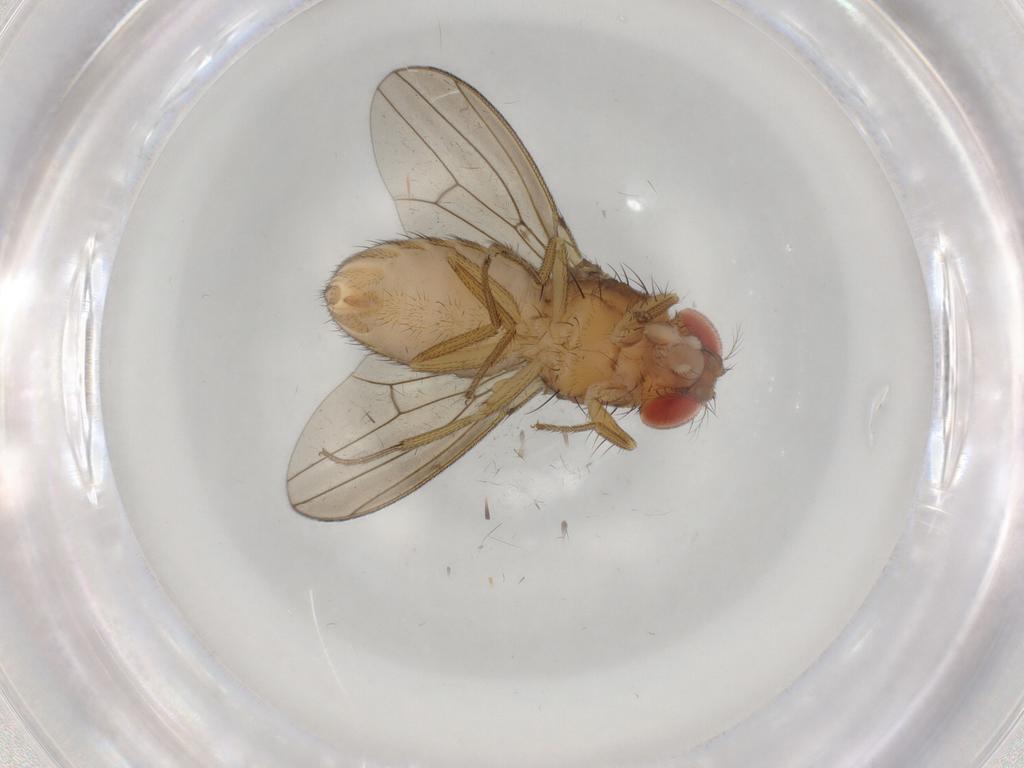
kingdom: Animalia
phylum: Arthropoda
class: Insecta
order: Diptera
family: Drosophilidae
